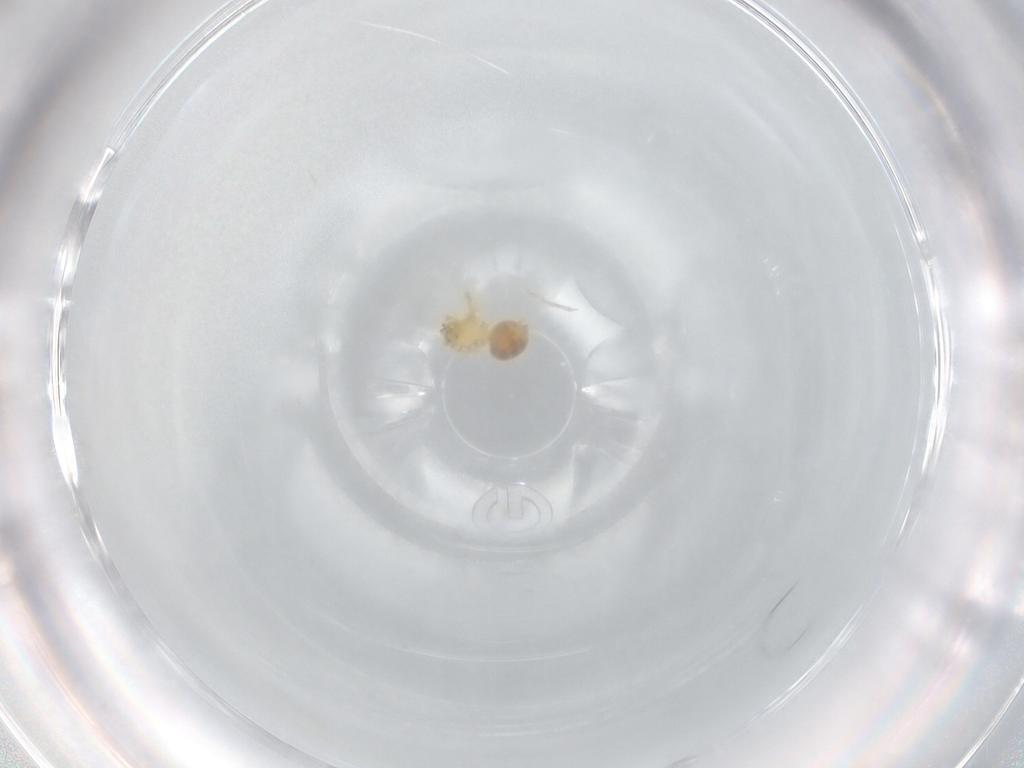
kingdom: Animalia
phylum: Arthropoda
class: Arachnida
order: Araneae
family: Oonopidae
